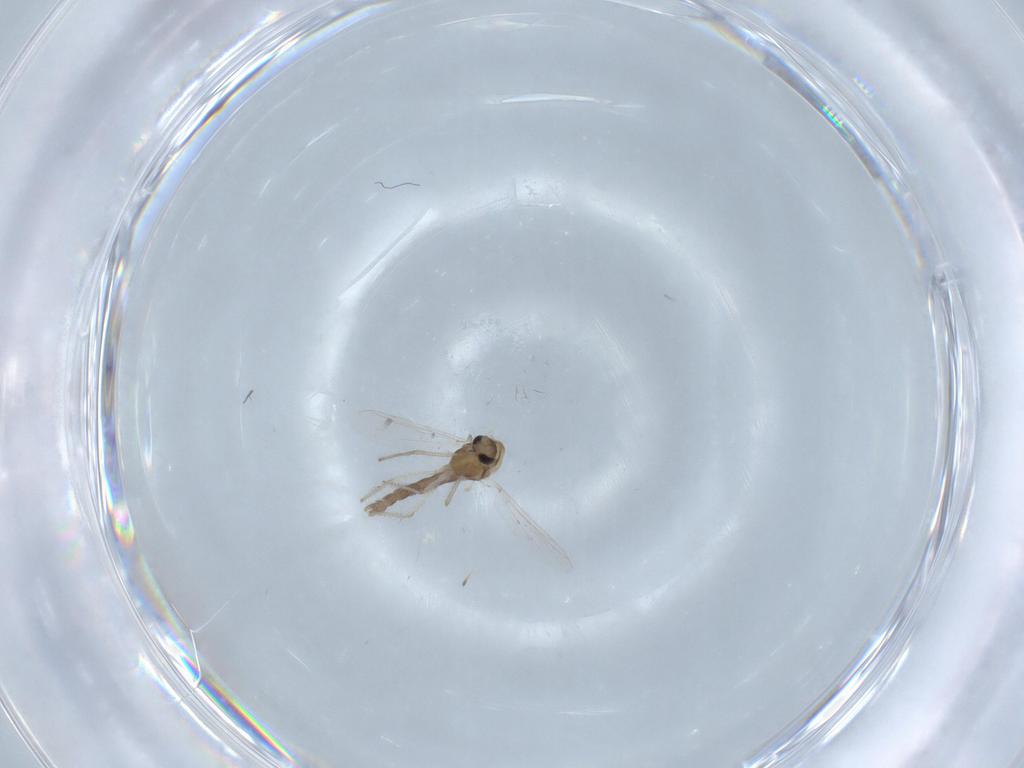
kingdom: Animalia
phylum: Arthropoda
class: Insecta
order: Diptera
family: Chironomidae
